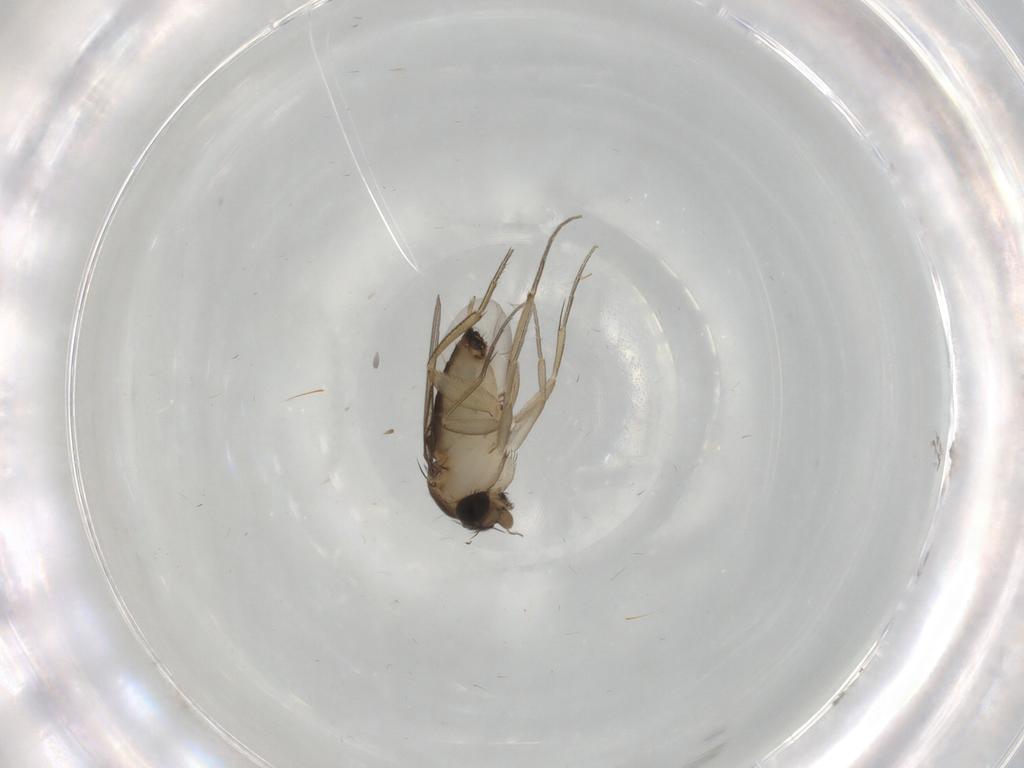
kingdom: Animalia
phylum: Arthropoda
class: Insecta
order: Diptera
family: Phoridae
